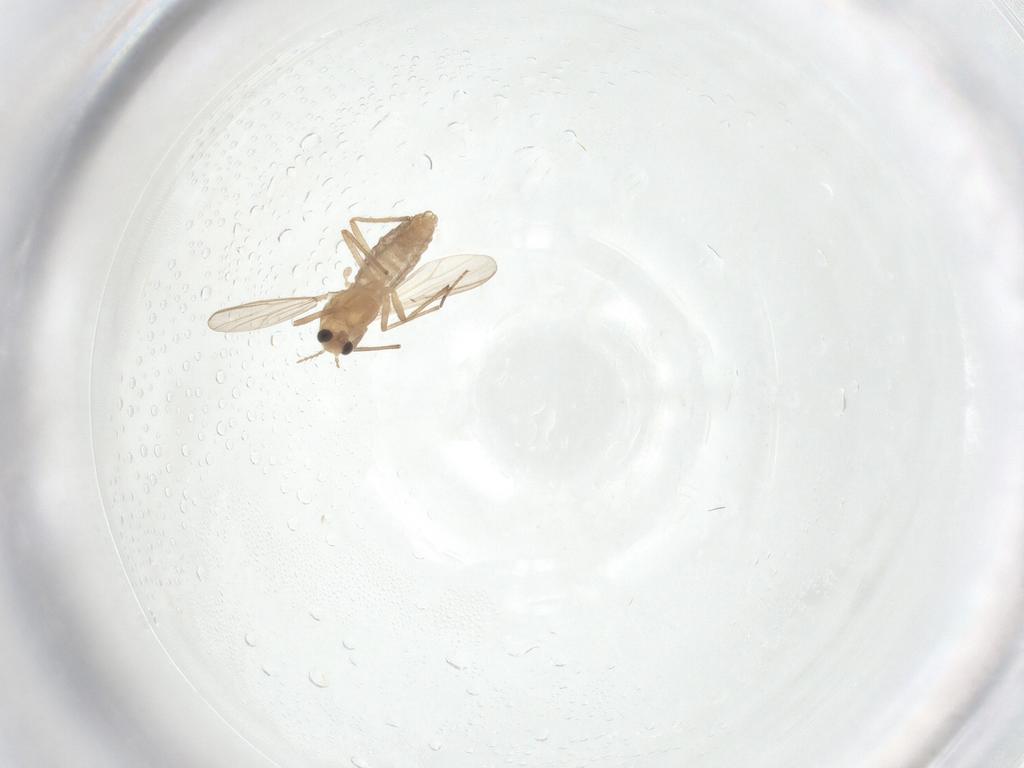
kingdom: Animalia
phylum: Arthropoda
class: Insecta
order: Diptera
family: Chironomidae
